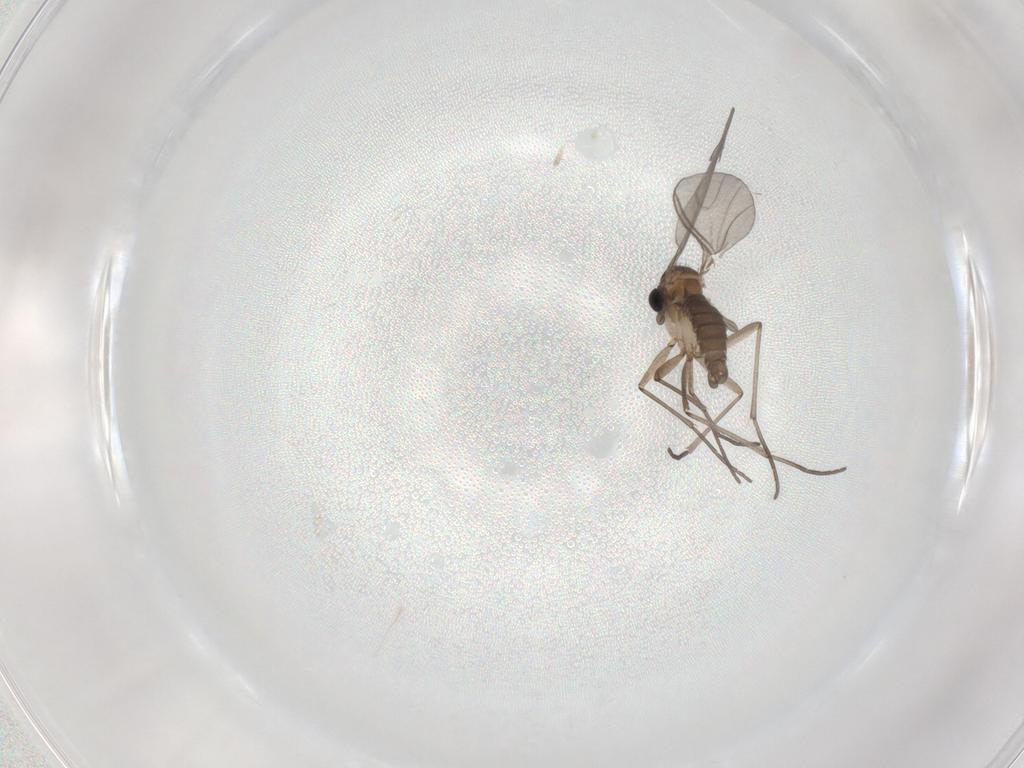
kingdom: Animalia
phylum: Arthropoda
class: Insecta
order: Diptera
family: Sciaridae
